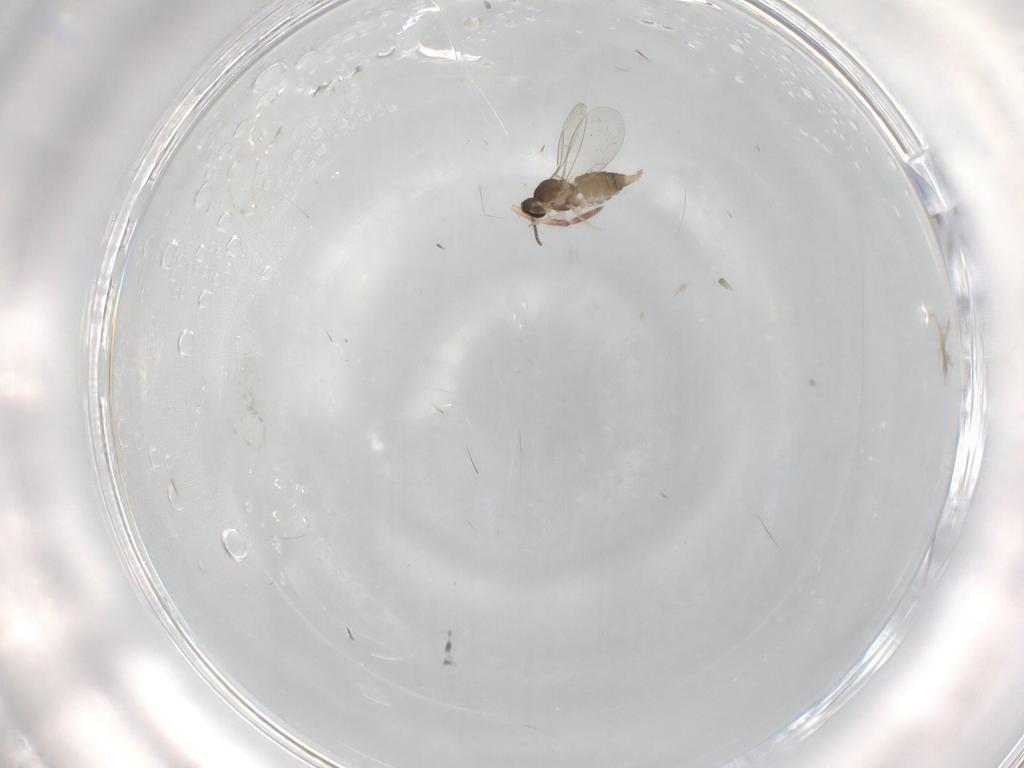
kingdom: Animalia
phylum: Arthropoda
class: Insecta
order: Diptera
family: Cecidomyiidae
